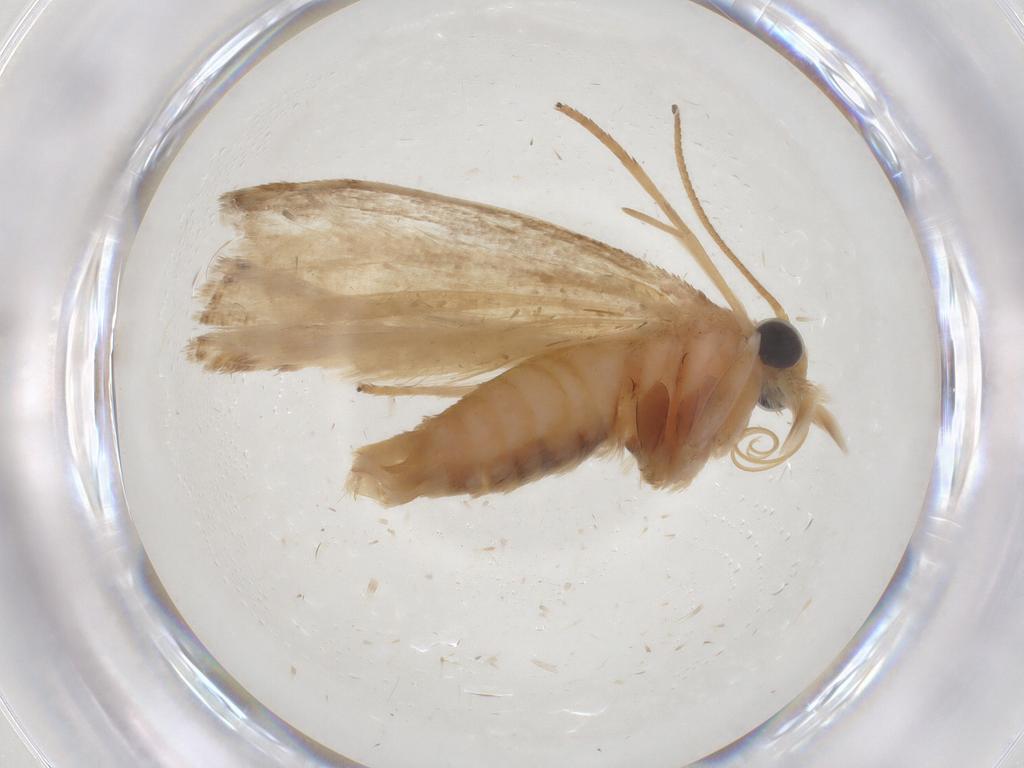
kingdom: Animalia
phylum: Arthropoda
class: Insecta
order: Lepidoptera
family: Pyralidae
